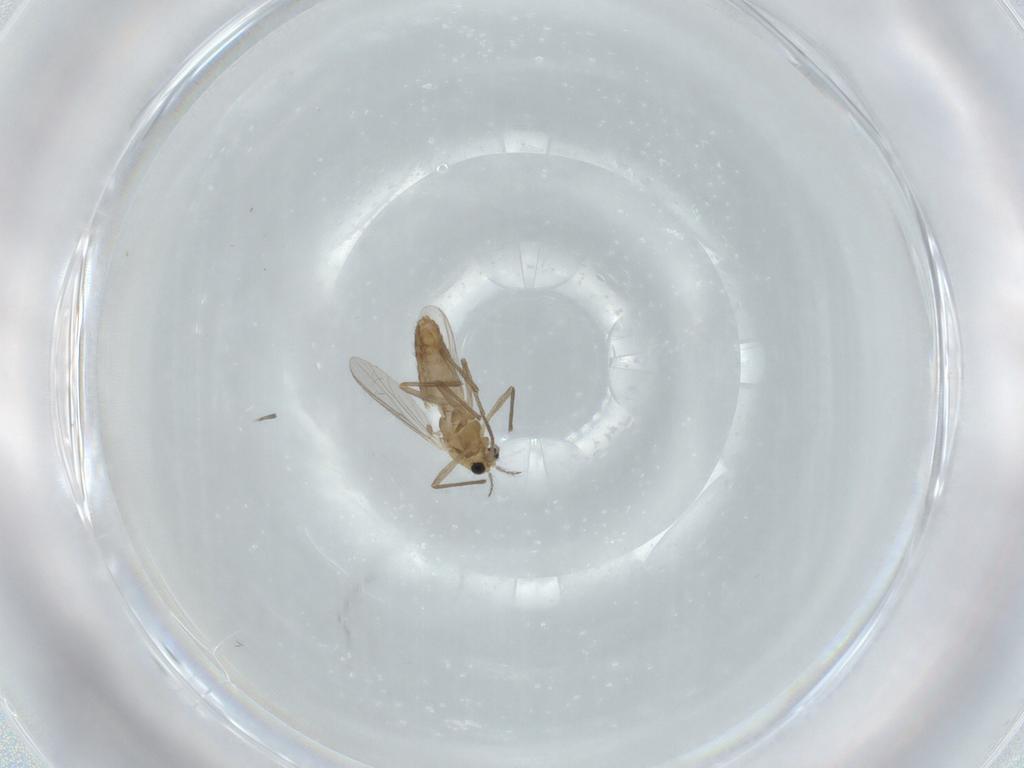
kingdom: Animalia
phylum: Arthropoda
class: Insecta
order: Diptera
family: Chironomidae
